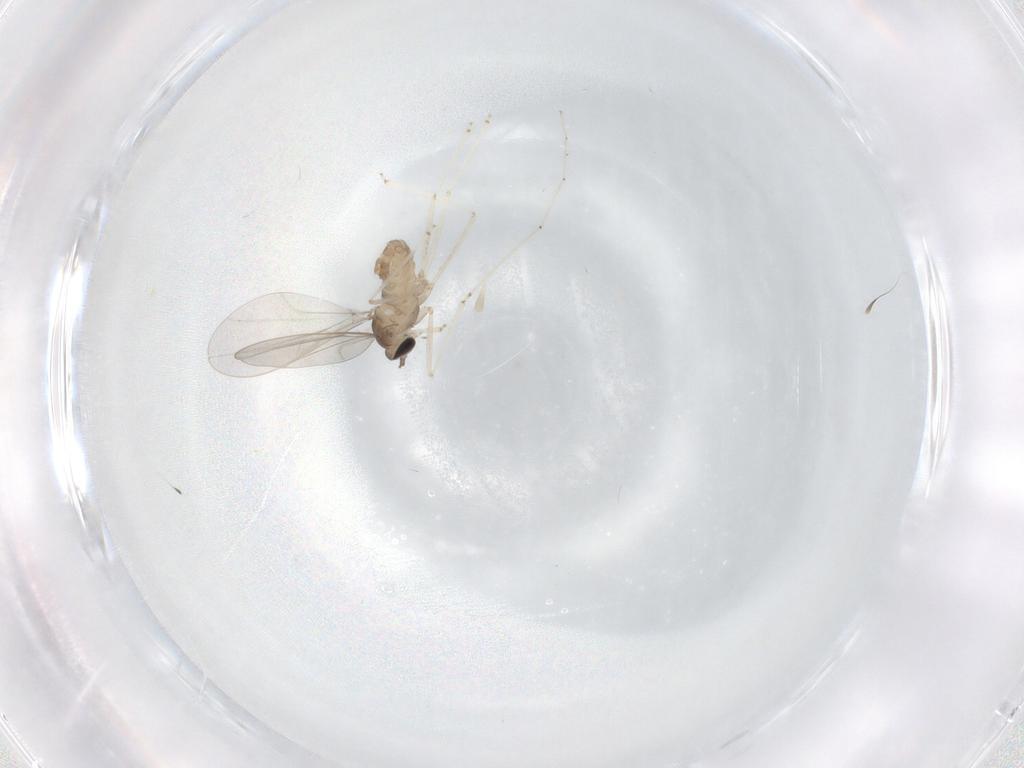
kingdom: Animalia
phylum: Arthropoda
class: Insecta
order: Diptera
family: Cecidomyiidae
